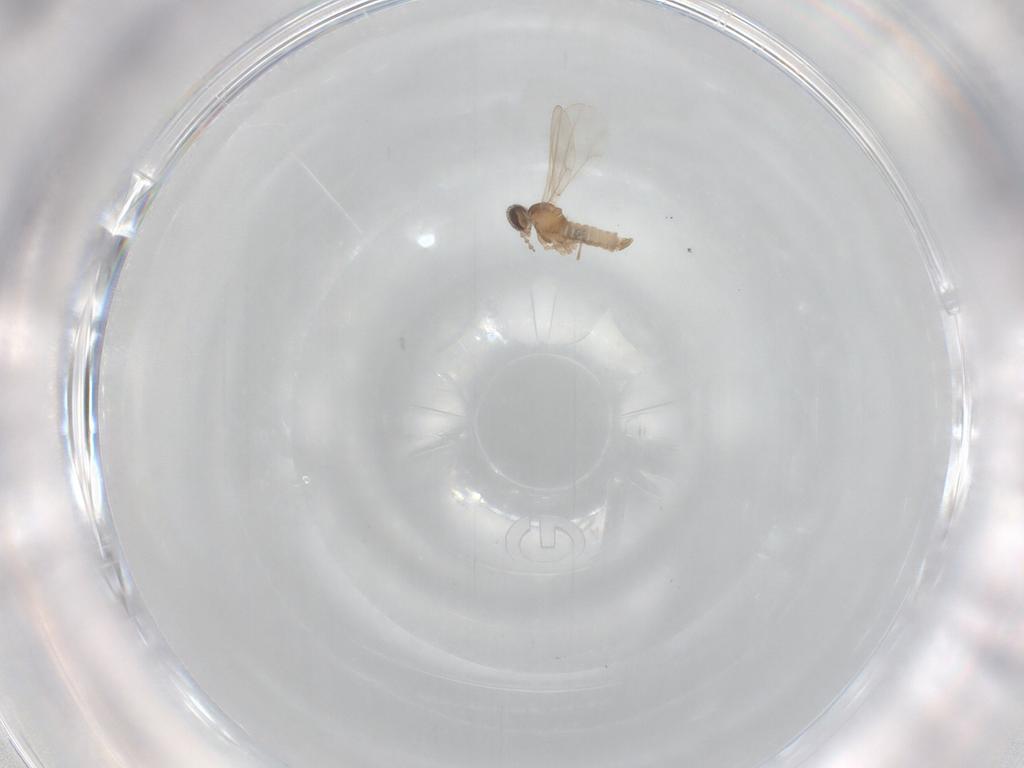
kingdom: Animalia
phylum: Arthropoda
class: Insecta
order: Diptera
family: Cecidomyiidae
